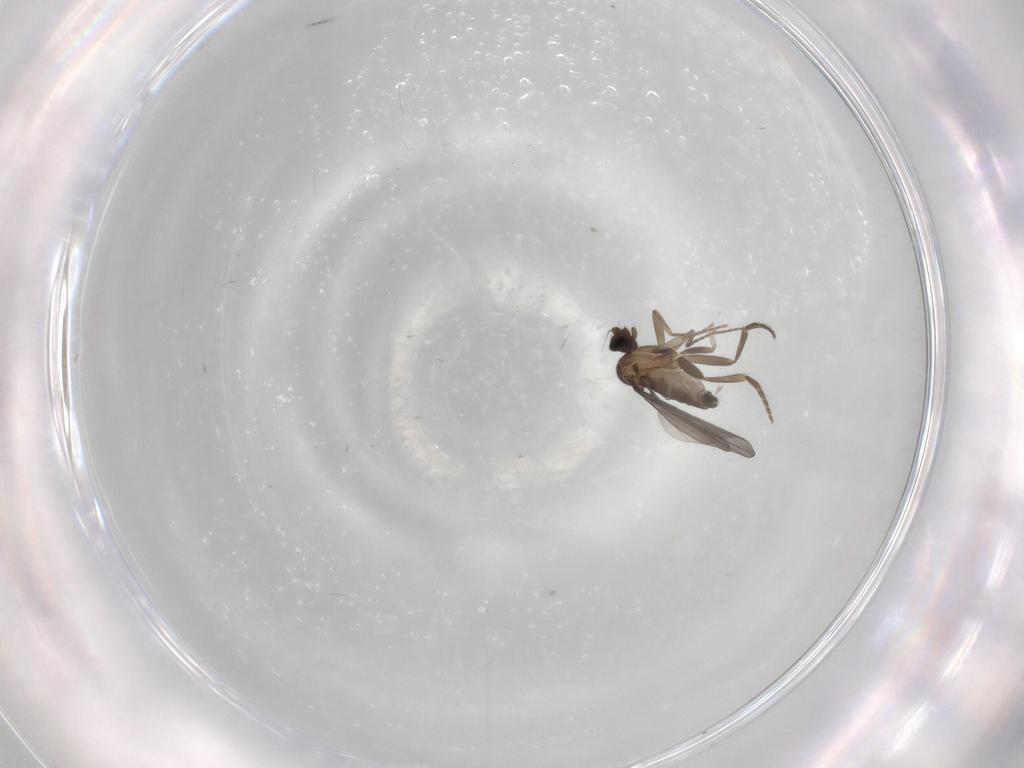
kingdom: Animalia
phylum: Arthropoda
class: Insecta
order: Diptera
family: Phoridae
